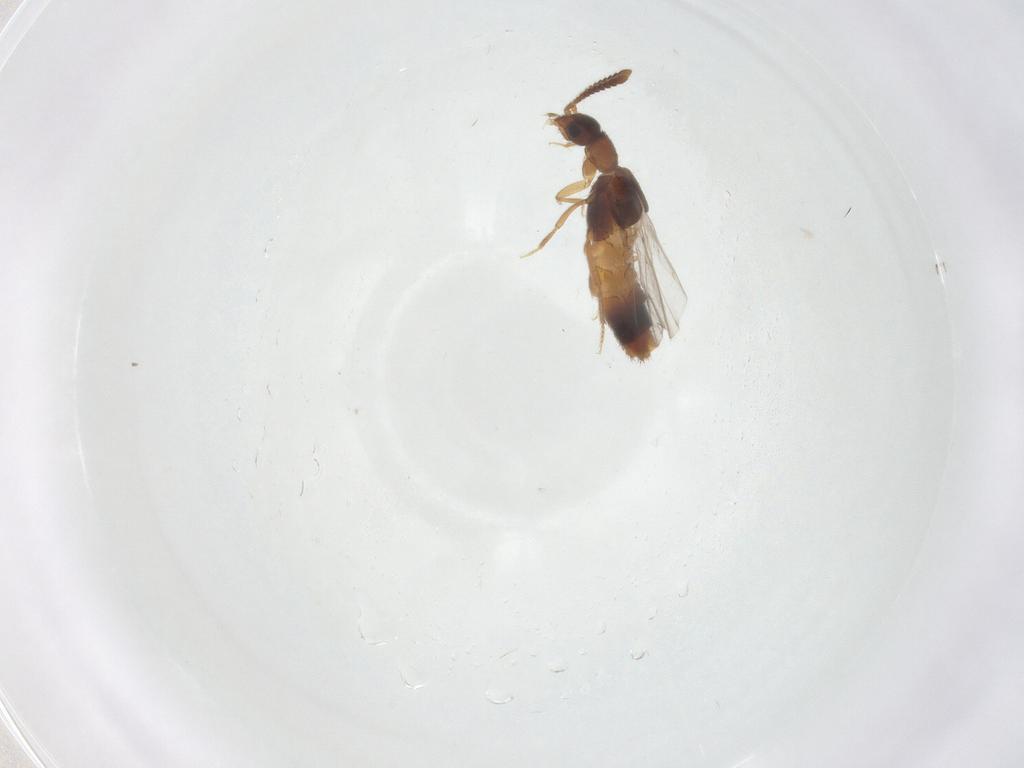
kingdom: Animalia
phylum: Arthropoda
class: Insecta
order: Coleoptera
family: Staphylinidae
